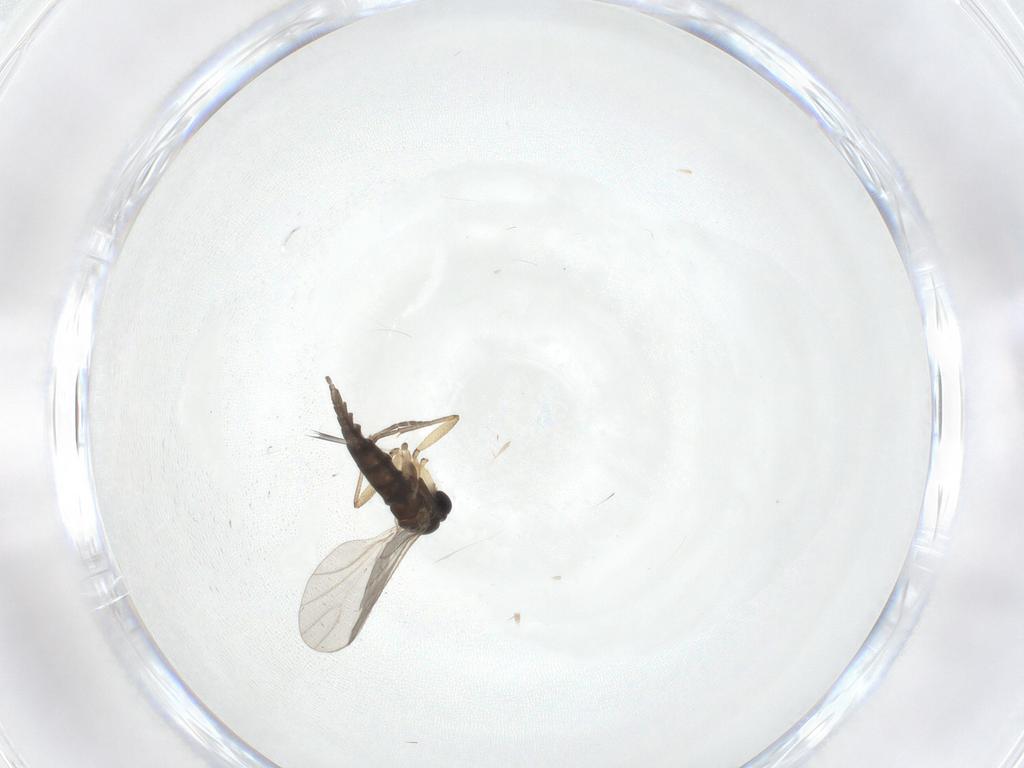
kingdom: Animalia
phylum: Arthropoda
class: Insecta
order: Diptera
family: Sciaridae
